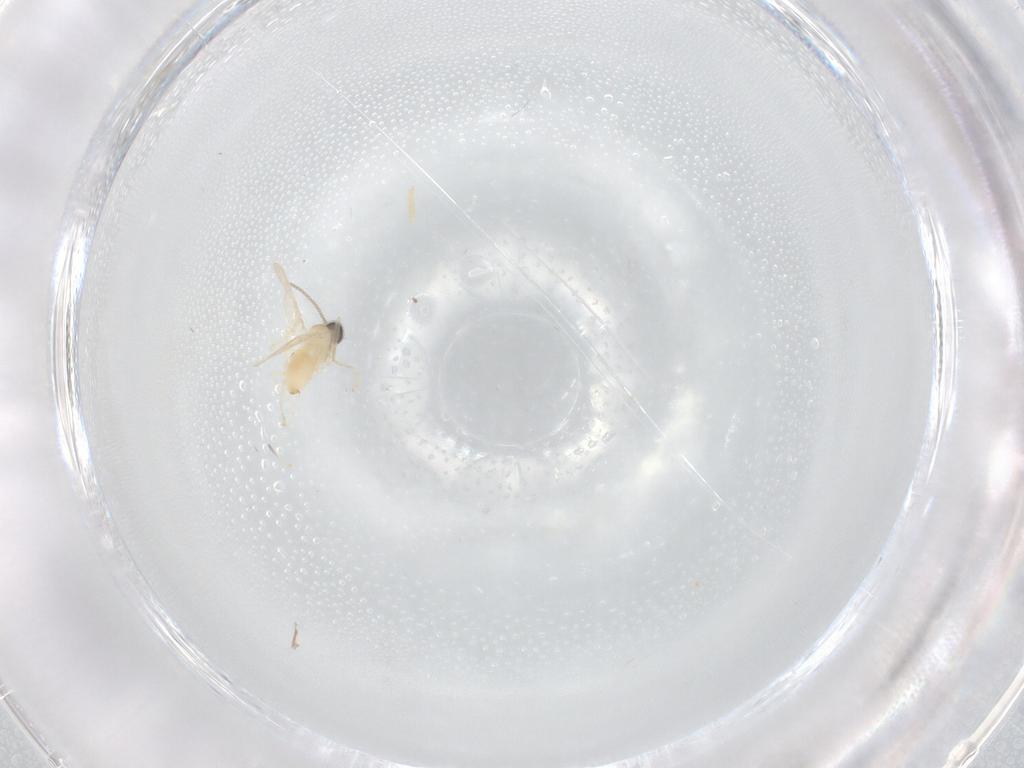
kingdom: Animalia
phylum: Arthropoda
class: Insecta
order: Diptera
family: Cecidomyiidae
